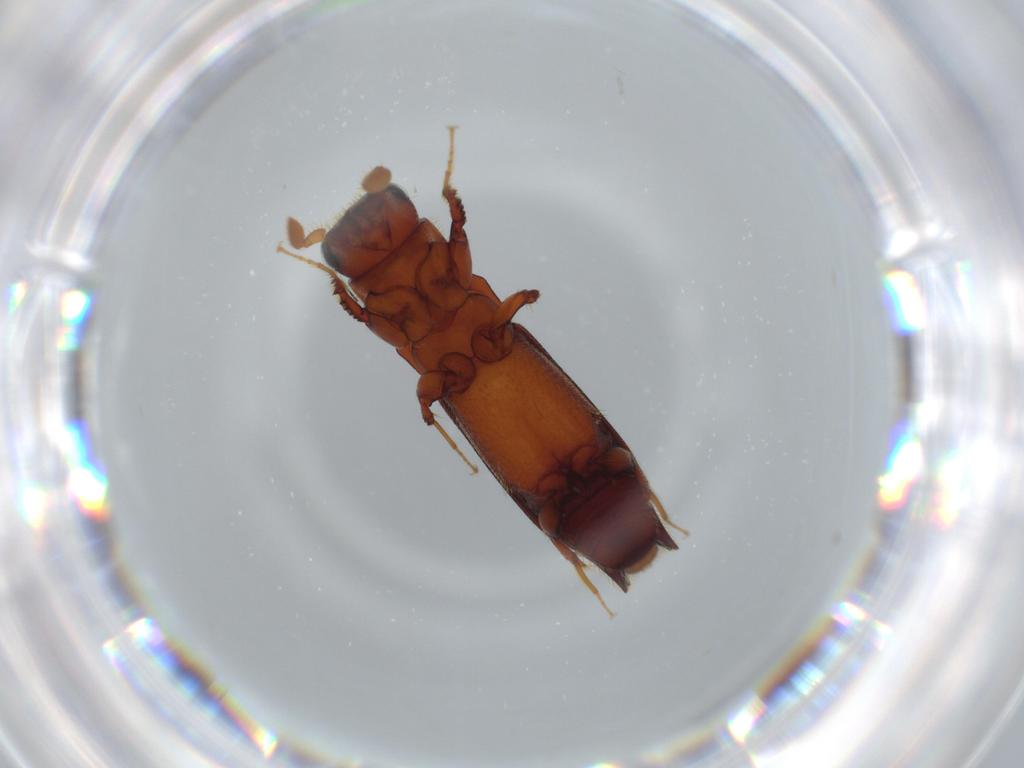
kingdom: Animalia
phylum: Arthropoda
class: Insecta
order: Coleoptera
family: Curculionidae
